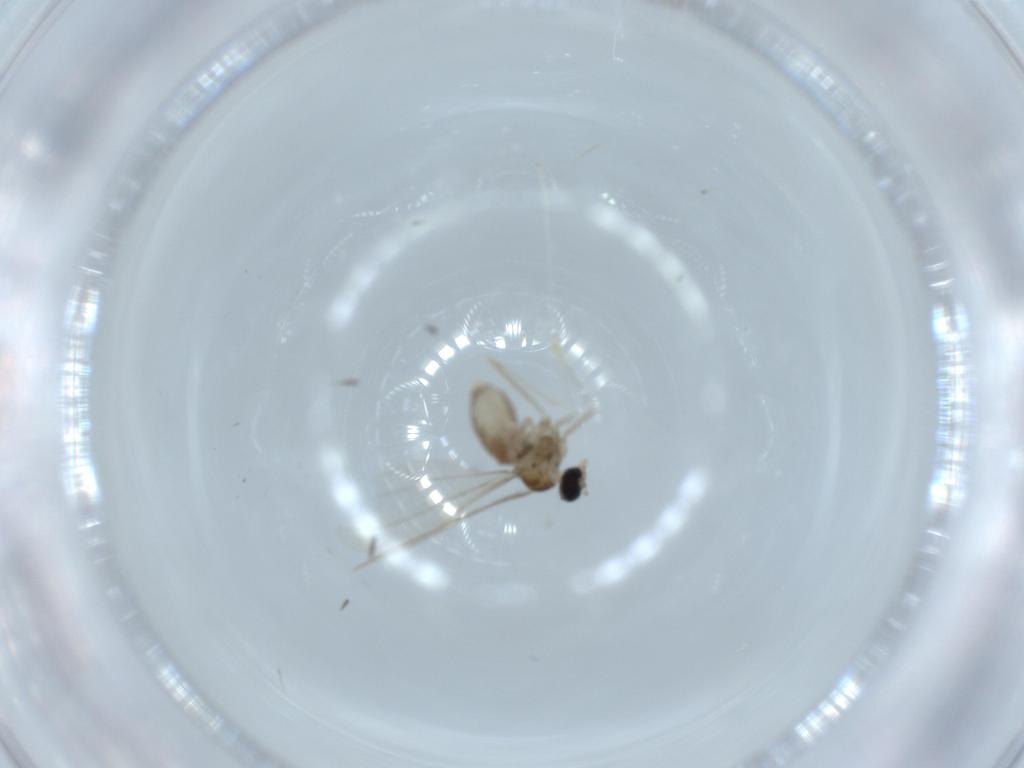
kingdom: Animalia
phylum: Arthropoda
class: Insecta
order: Diptera
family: Cecidomyiidae
